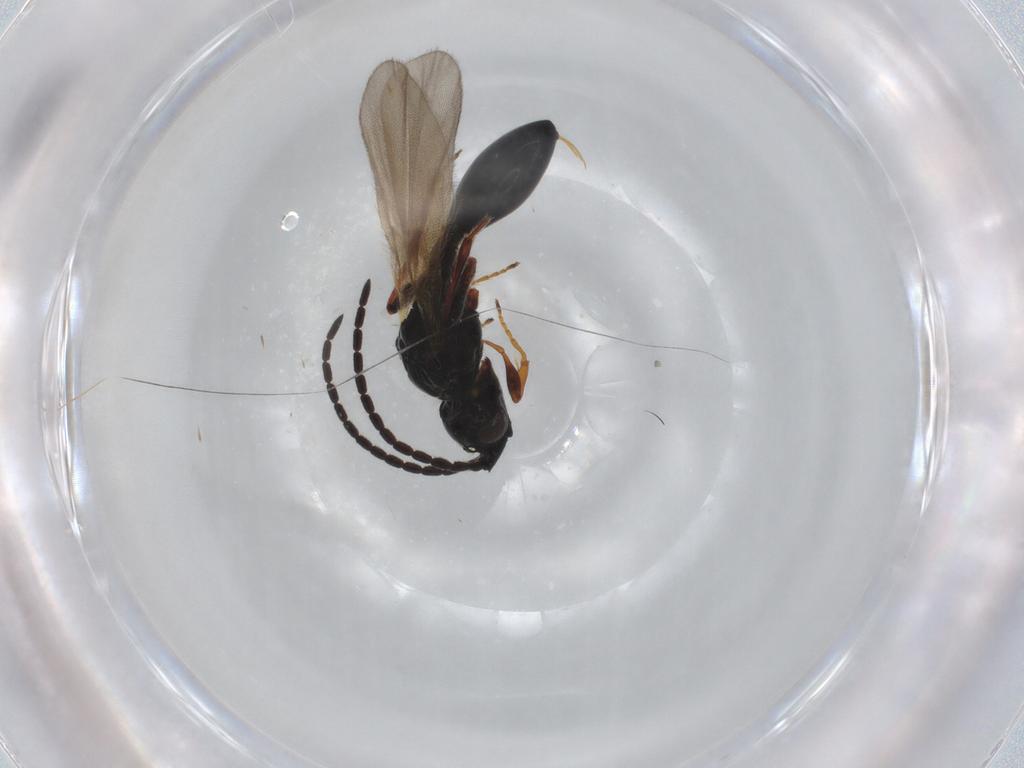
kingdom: Animalia
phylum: Arthropoda
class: Insecta
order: Hymenoptera
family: Diapriidae
